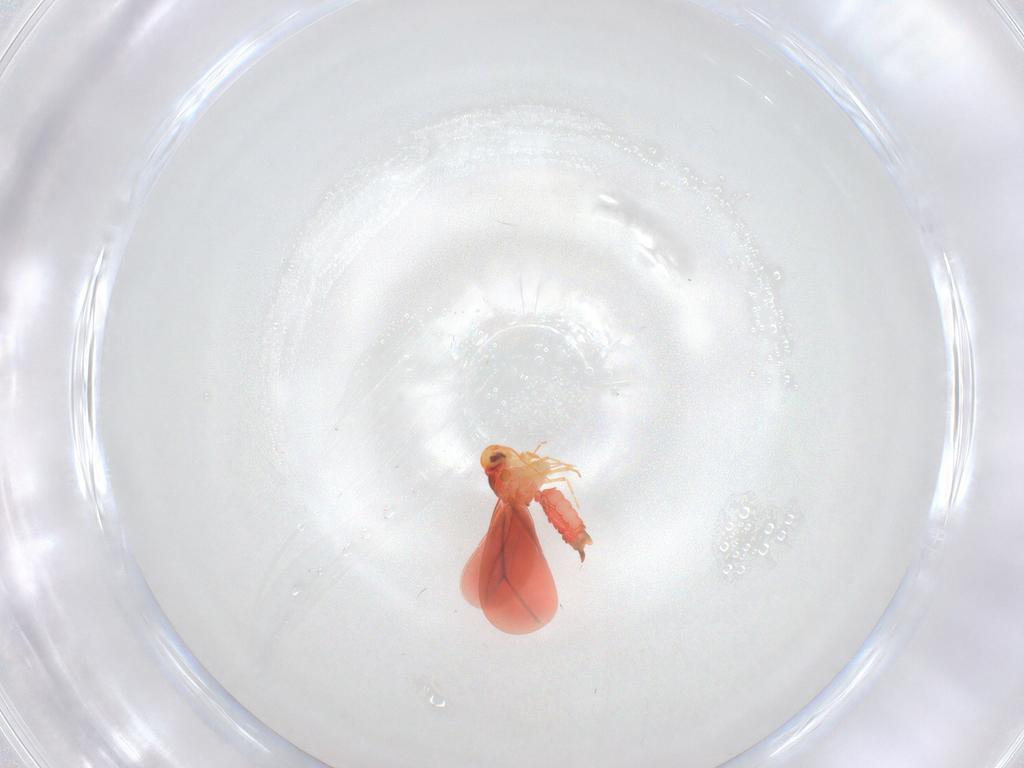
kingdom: Animalia
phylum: Arthropoda
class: Insecta
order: Hemiptera
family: Aleyrodidae
